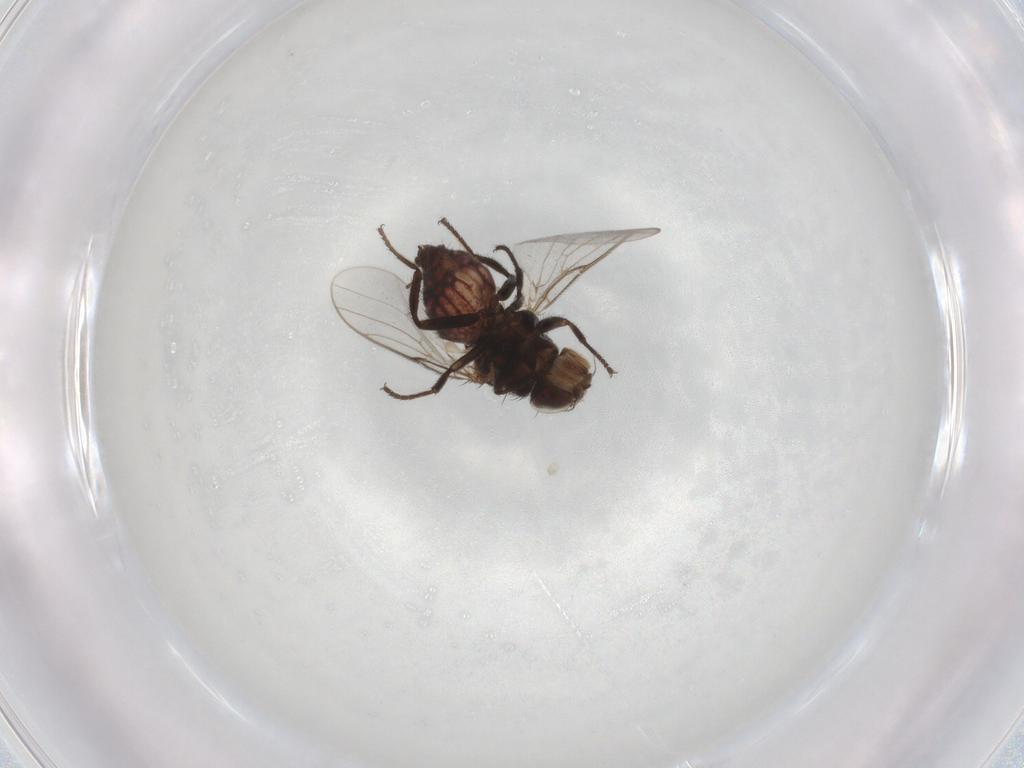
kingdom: Animalia
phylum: Arthropoda
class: Insecta
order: Diptera
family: Chloropidae
